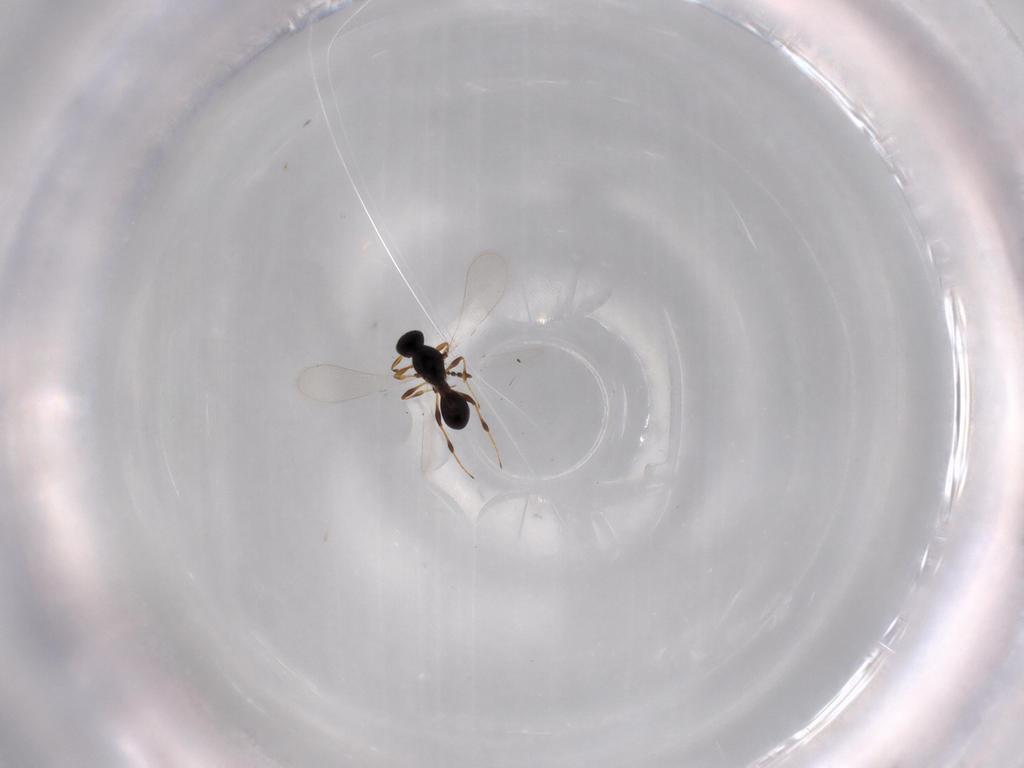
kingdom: Animalia
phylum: Arthropoda
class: Insecta
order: Hymenoptera
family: Platygastridae
